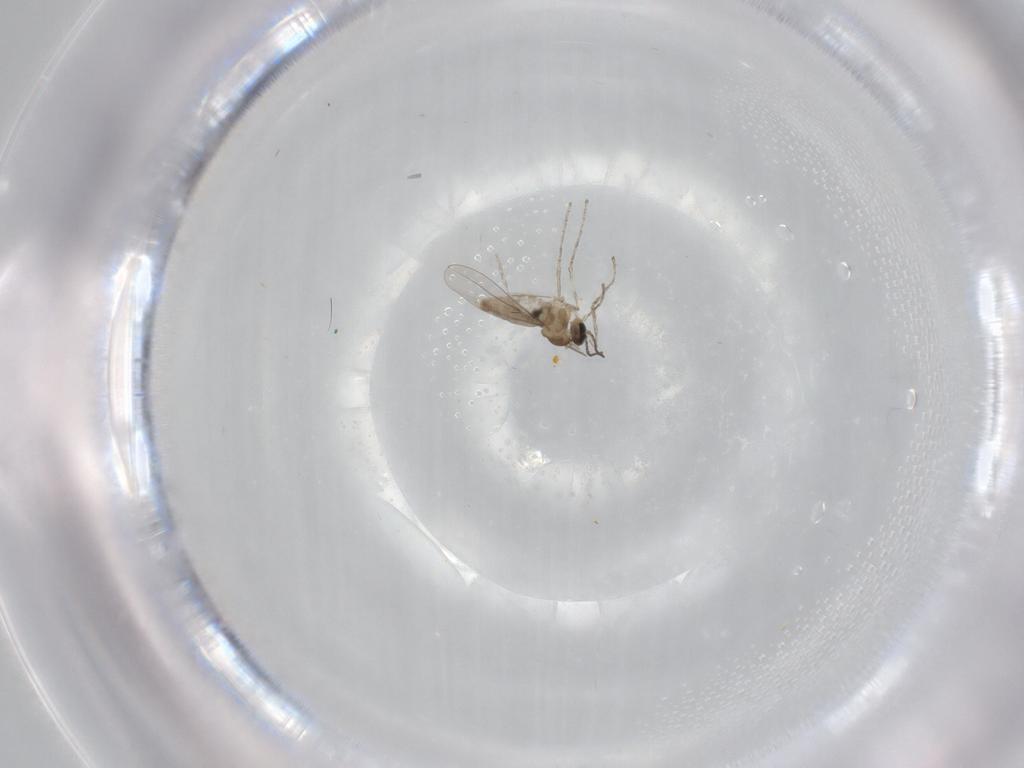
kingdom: Animalia
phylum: Arthropoda
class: Insecta
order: Diptera
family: Cecidomyiidae
